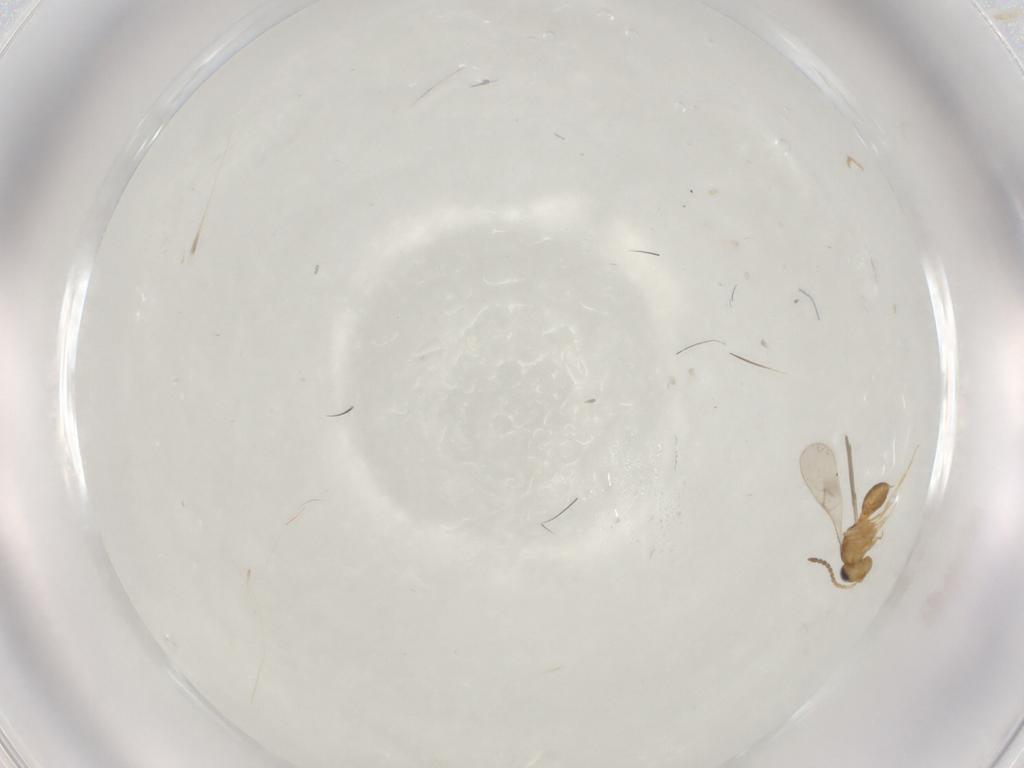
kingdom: Animalia
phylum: Arthropoda
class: Insecta
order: Hymenoptera
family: Scelionidae
